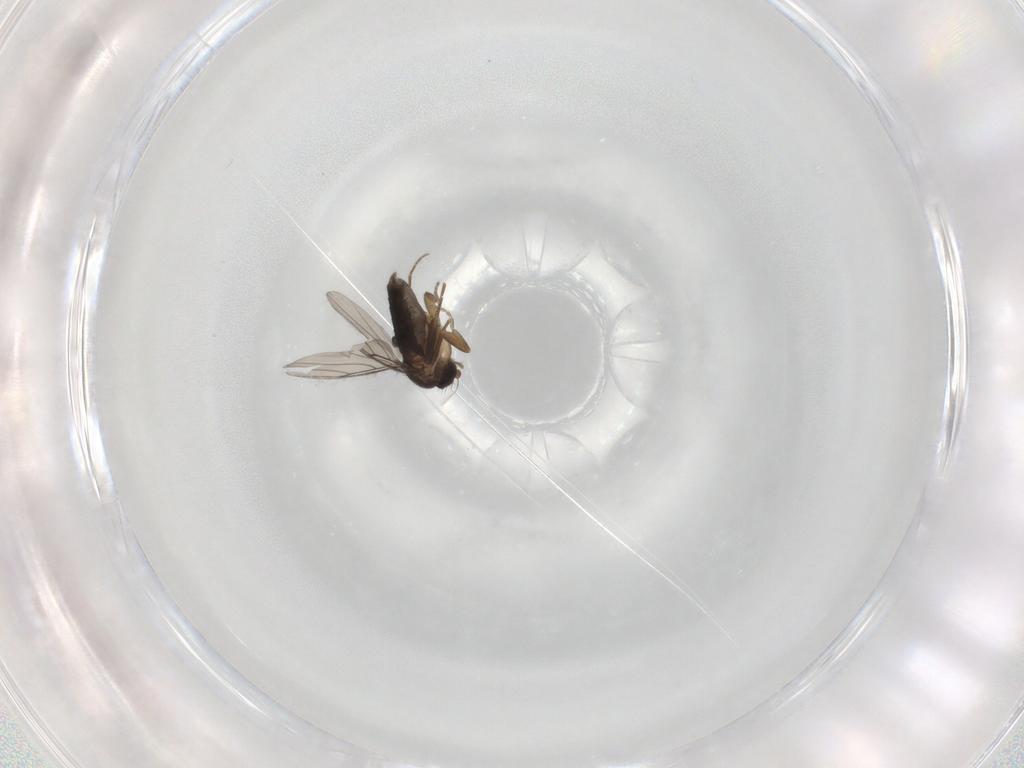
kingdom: Animalia
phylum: Arthropoda
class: Insecta
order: Diptera
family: Phoridae
